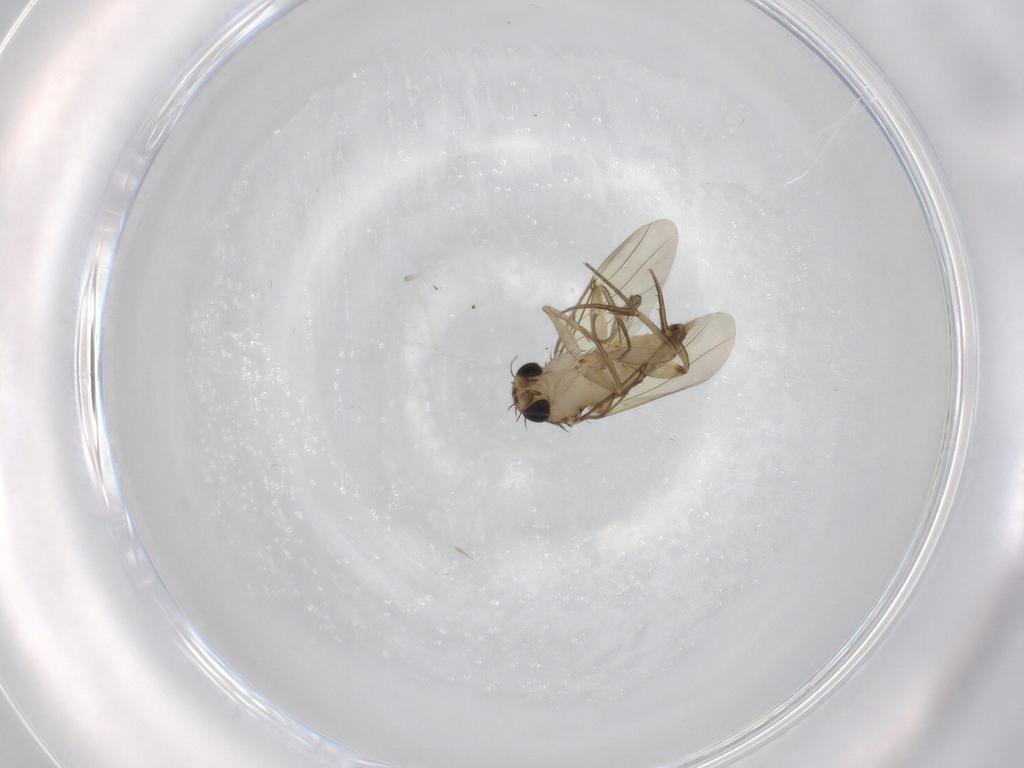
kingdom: Animalia
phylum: Arthropoda
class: Insecta
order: Diptera
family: Phoridae
